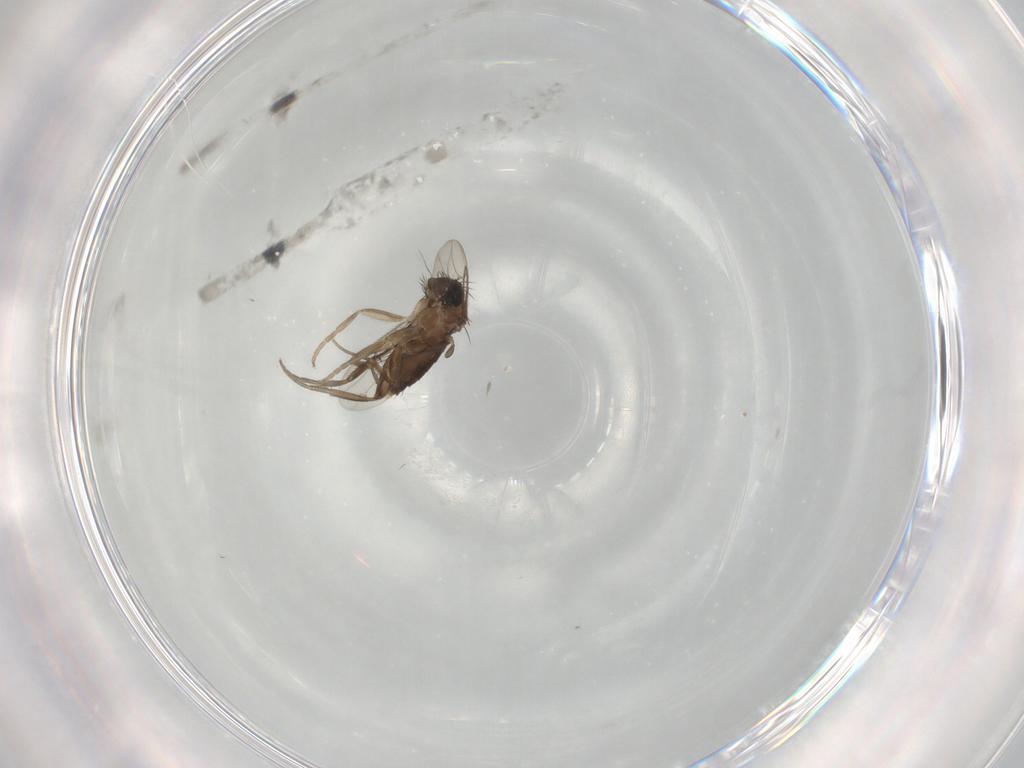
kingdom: Animalia
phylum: Arthropoda
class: Insecta
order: Diptera
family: Phoridae
